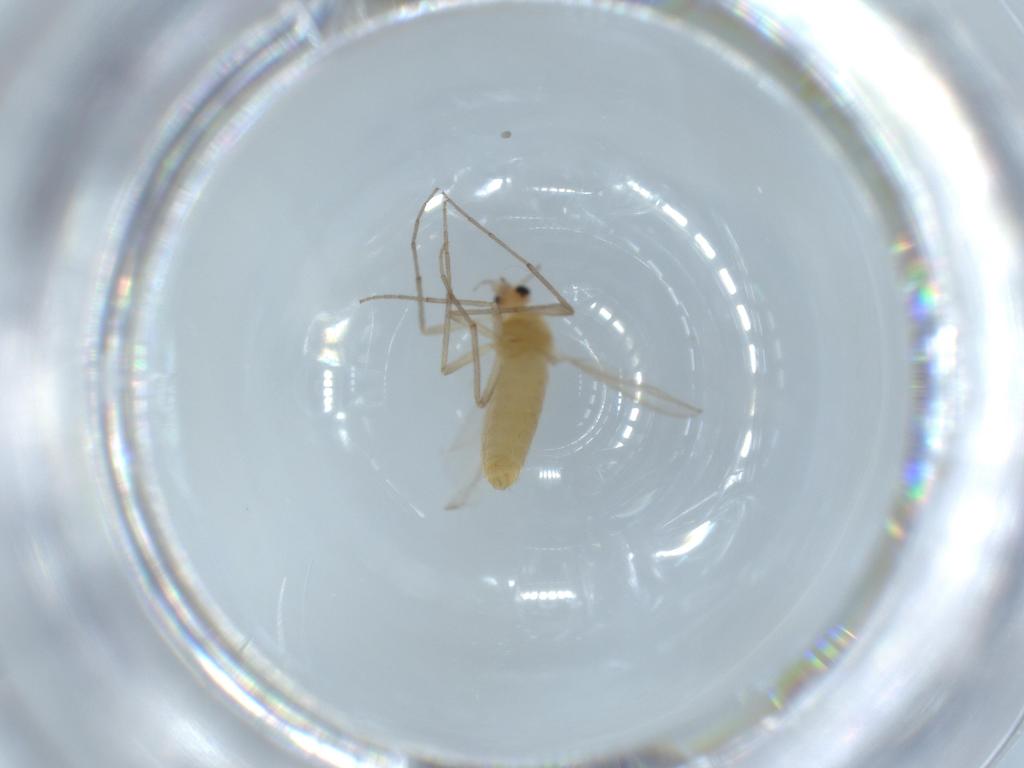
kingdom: Animalia
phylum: Arthropoda
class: Insecta
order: Diptera
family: Chironomidae
